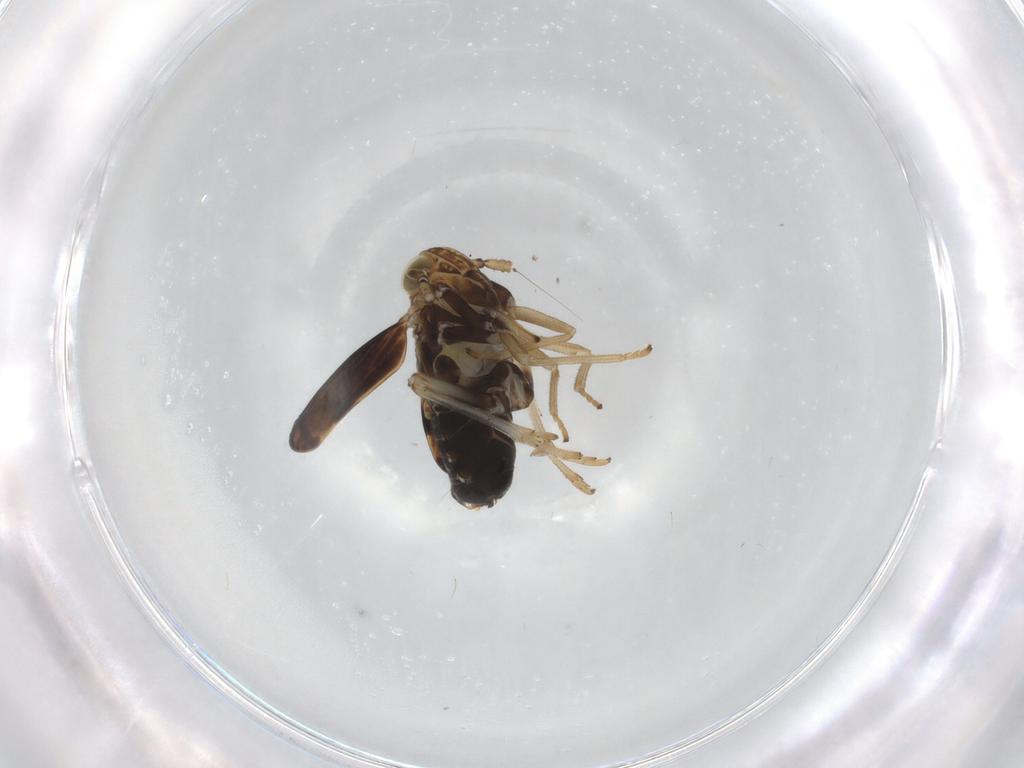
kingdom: Animalia
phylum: Arthropoda
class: Insecta
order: Hemiptera
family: Delphacidae
